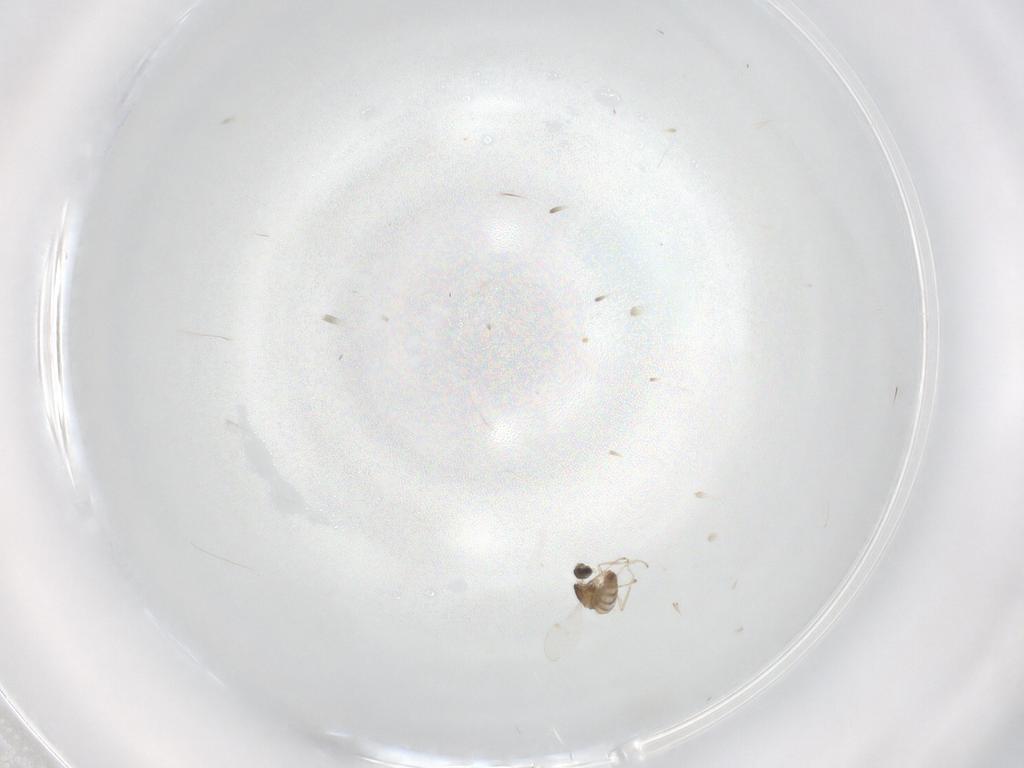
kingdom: Animalia
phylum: Arthropoda
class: Insecta
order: Diptera
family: Cecidomyiidae
